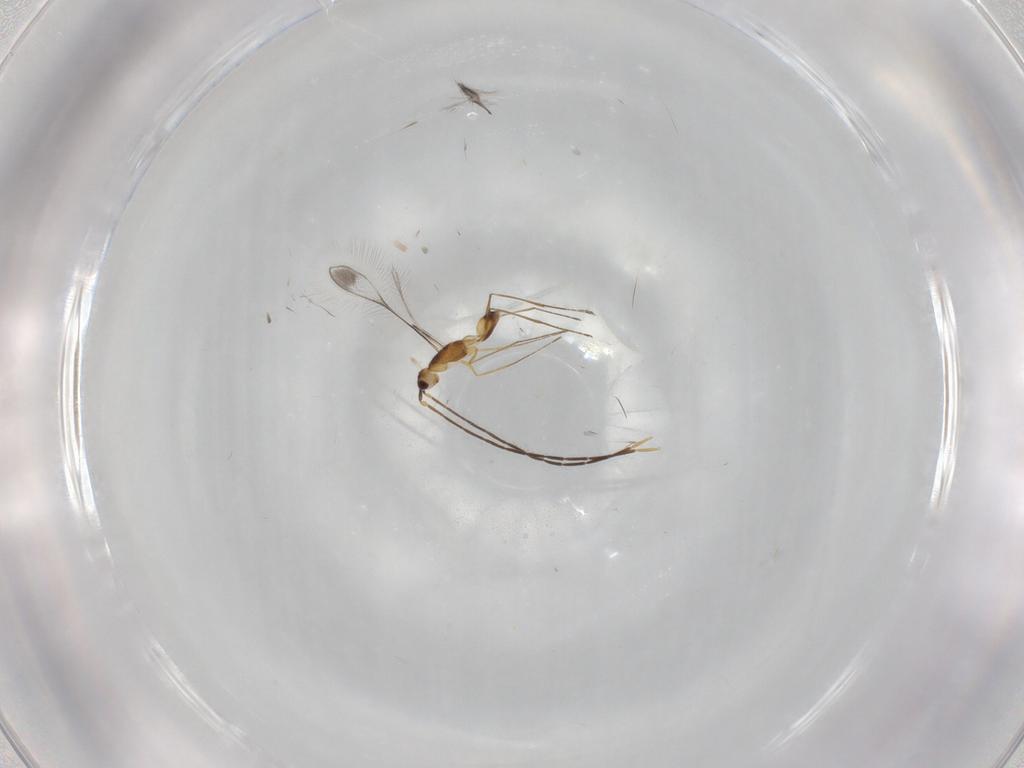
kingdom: Animalia
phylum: Arthropoda
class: Insecta
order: Hymenoptera
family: Mymaridae
